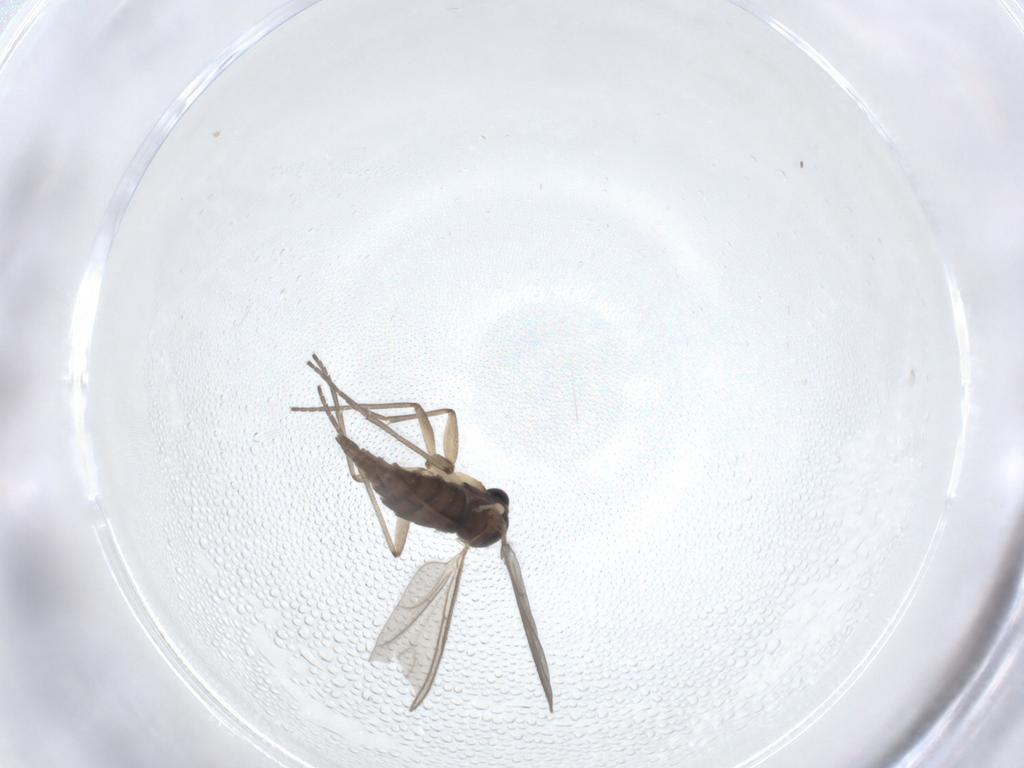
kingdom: Animalia
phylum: Arthropoda
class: Insecta
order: Diptera
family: Sciaridae
